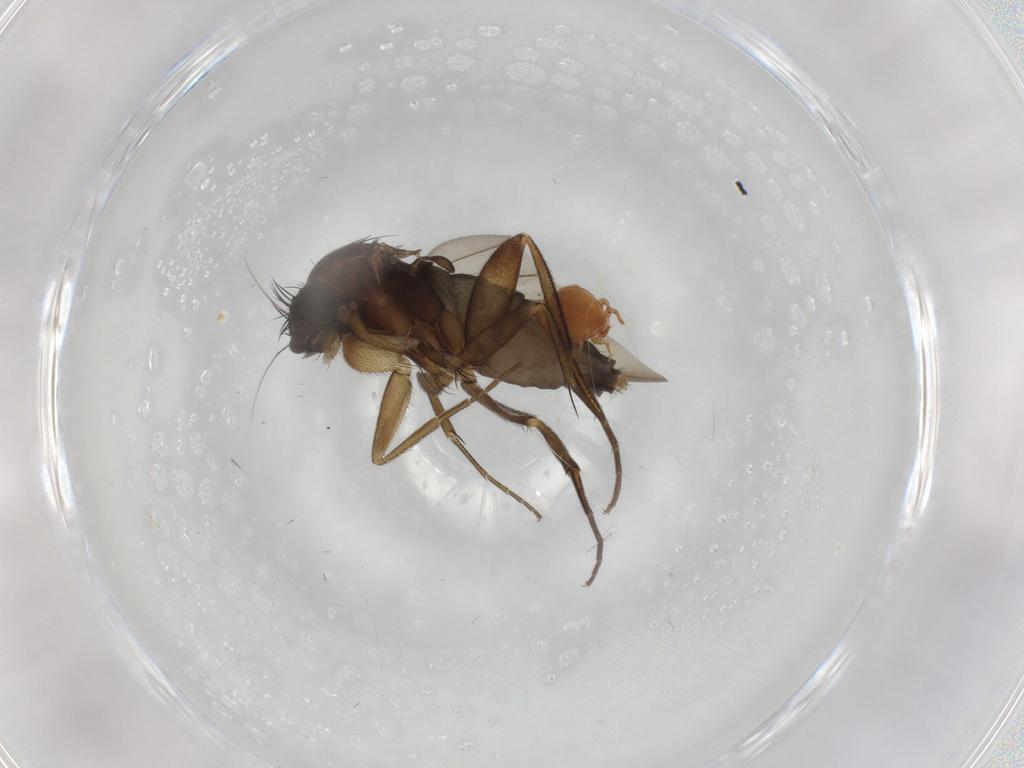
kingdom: Animalia
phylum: Arthropoda
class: Insecta
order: Diptera
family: Phoridae
